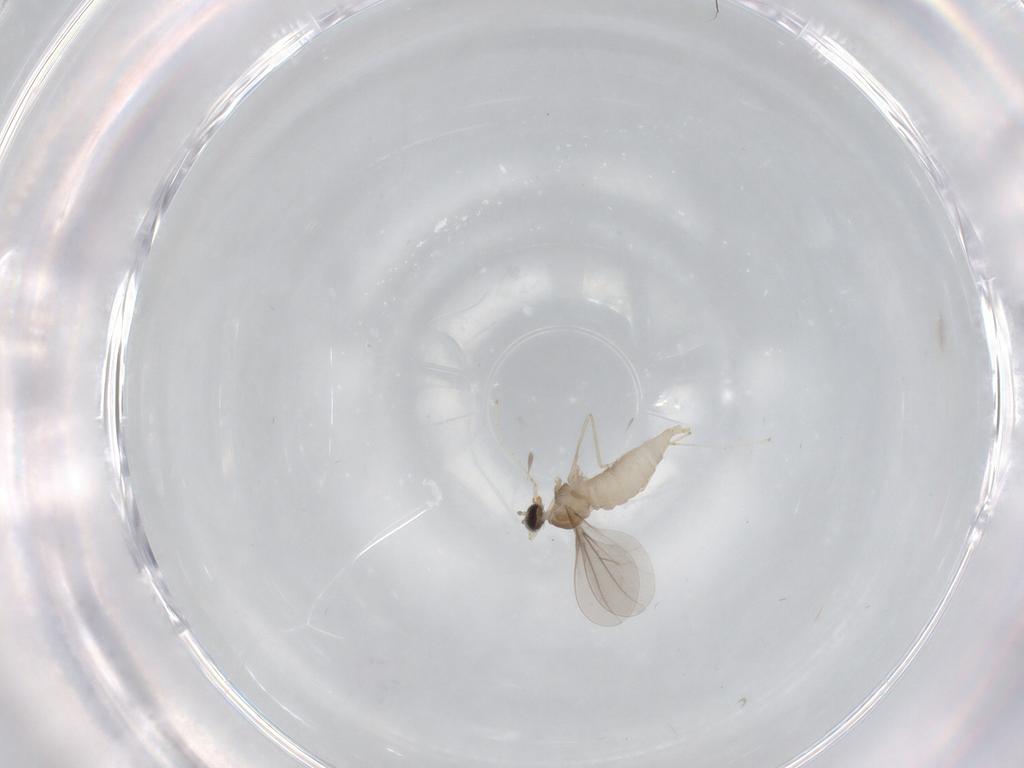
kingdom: Animalia
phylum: Arthropoda
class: Insecta
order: Diptera
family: Cecidomyiidae
